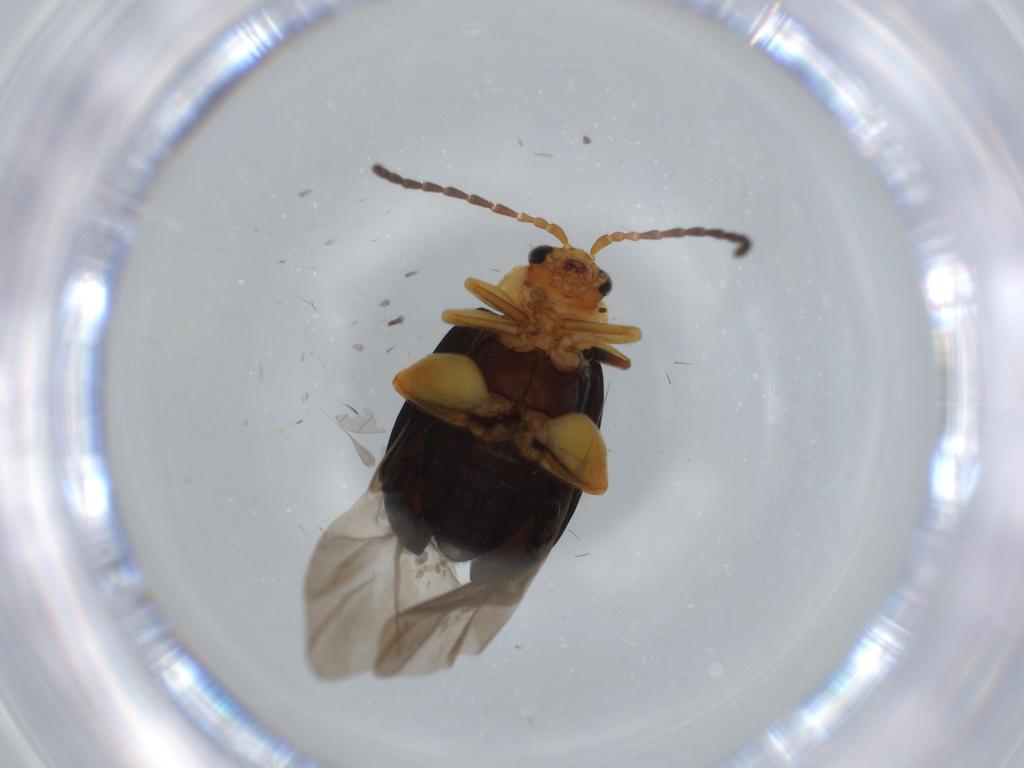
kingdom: Animalia
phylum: Arthropoda
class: Insecta
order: Coleoptera
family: Chrysomelidae
